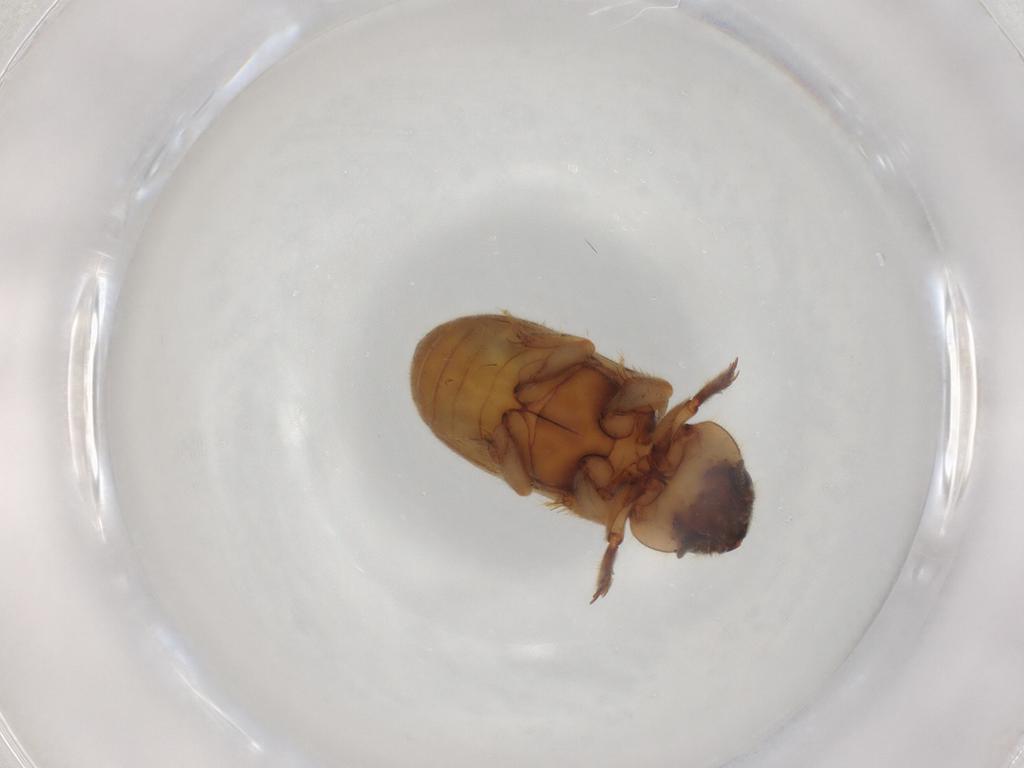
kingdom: Animalia
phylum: Arthropoda
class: Insecta
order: Coleoptera
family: Heteroceridae
